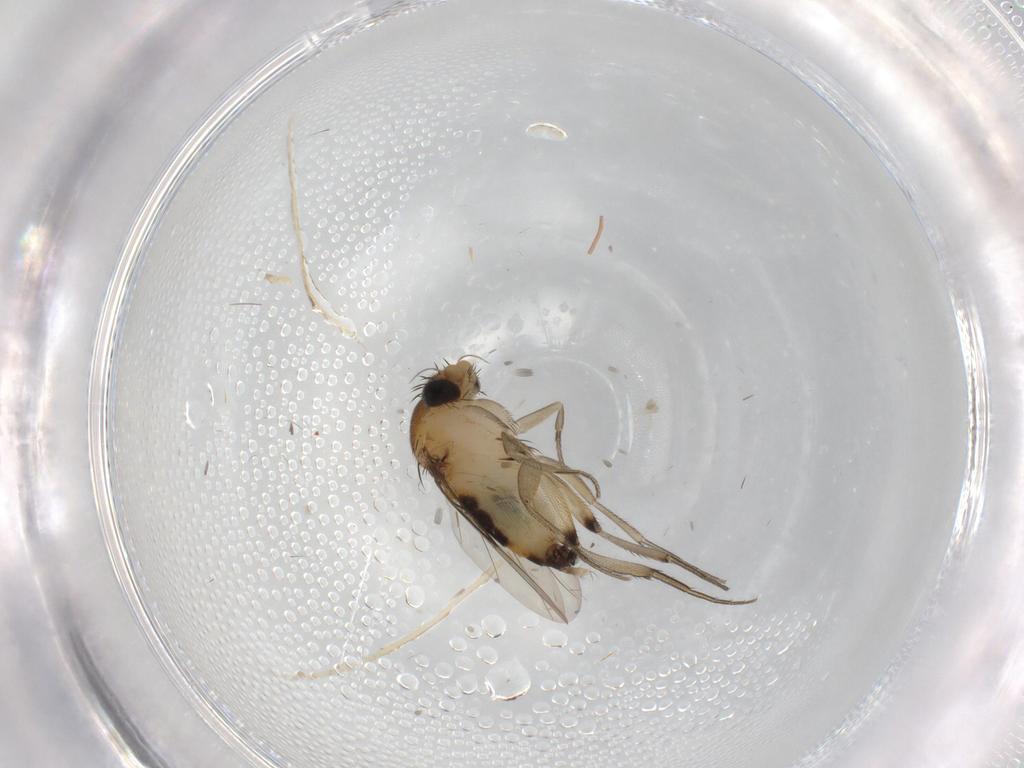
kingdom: Animalia
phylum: Arthropoda
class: Insecta
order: Diptera
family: Phoridae
